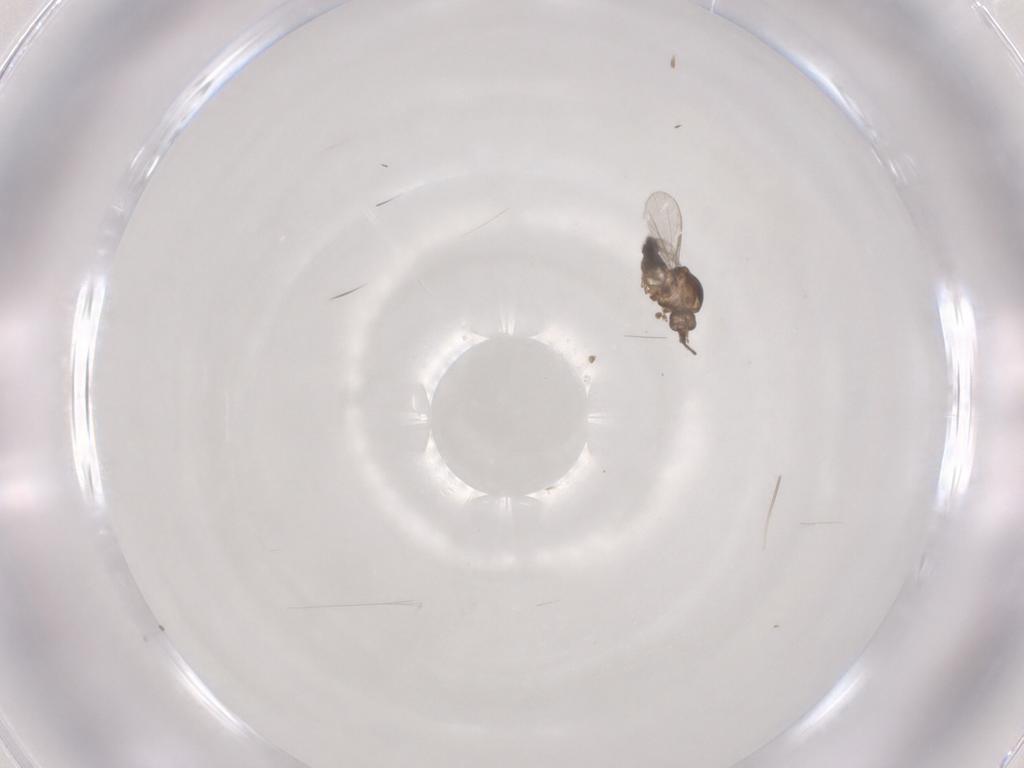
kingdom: Animalia
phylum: Arthropoda
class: Insecta
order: Diptera
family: Ceratopogonidae
